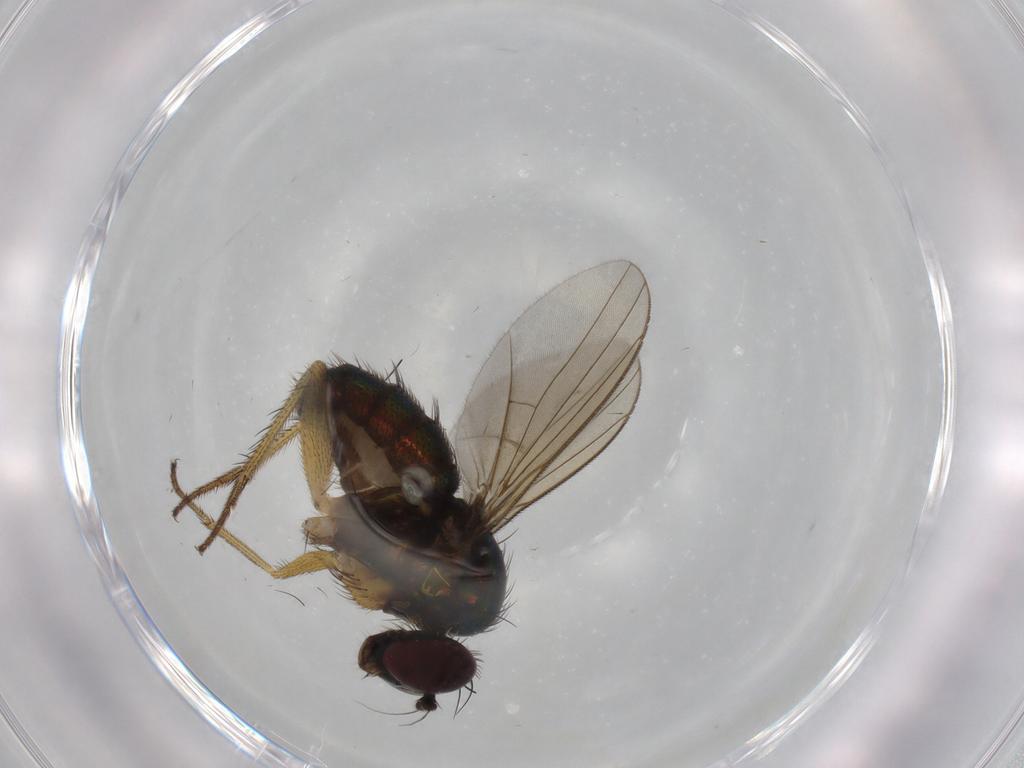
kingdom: Animalia
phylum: Arthropoda
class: Insecta
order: Diptera
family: Dolichopodidae
